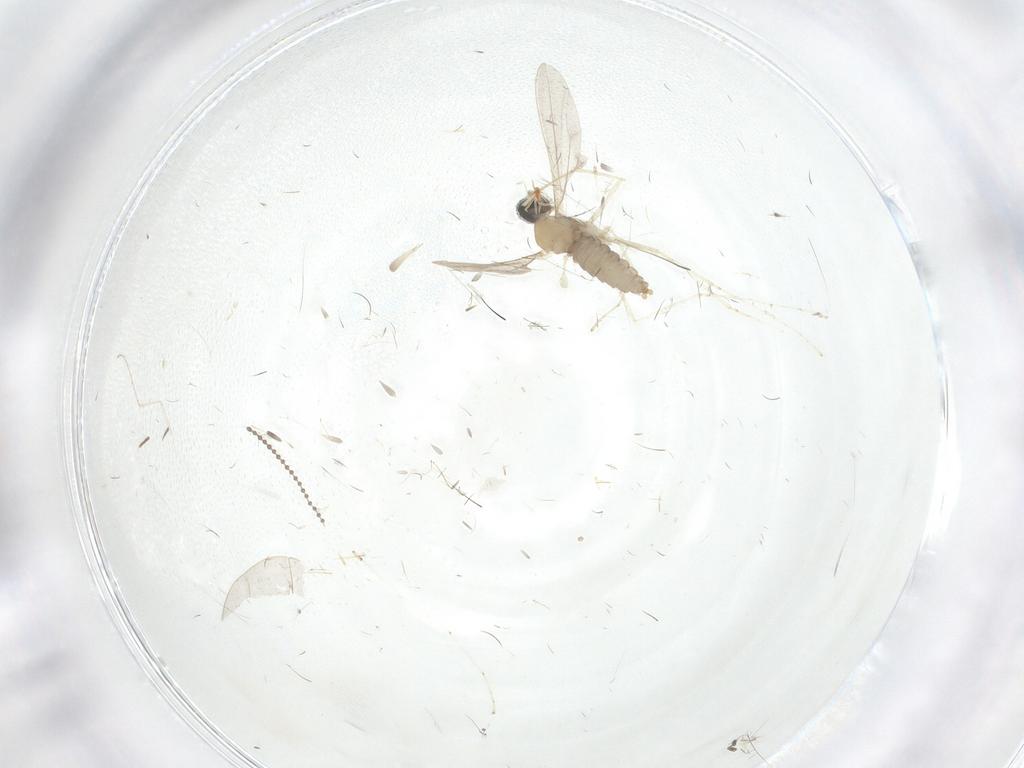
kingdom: Animalia
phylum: Arthropoda
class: Insecta
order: Diptera
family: Cecidomyiidae
